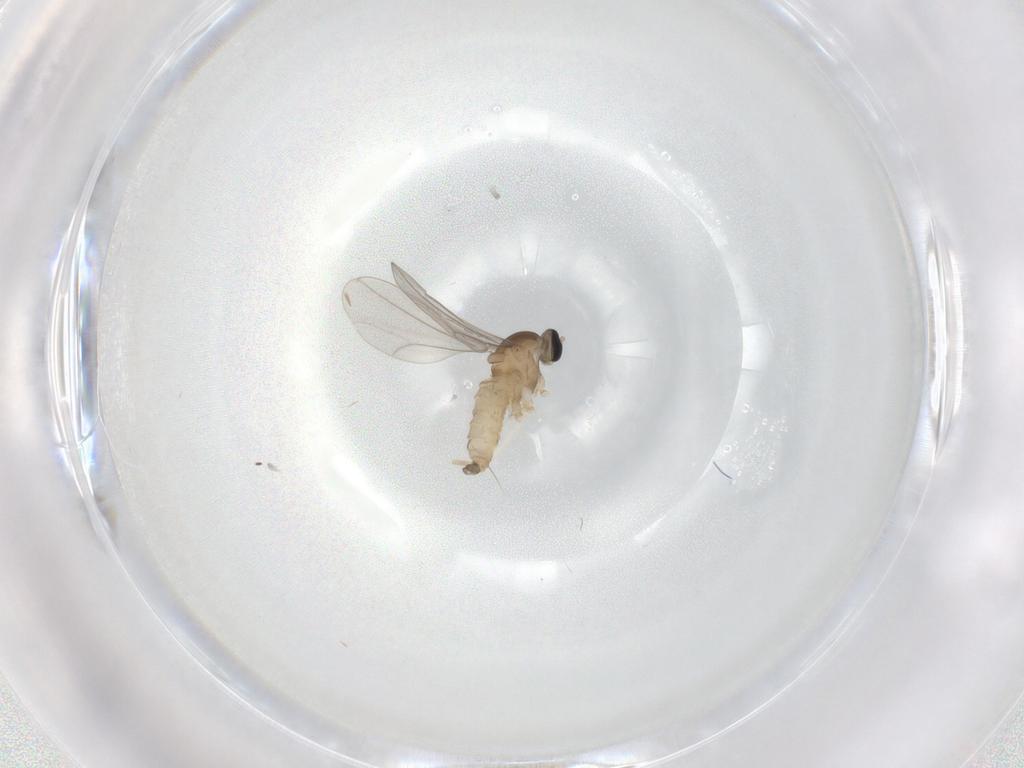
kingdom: Animalia
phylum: Arthropoda
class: Insecta
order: Diptera
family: Cecidomyiidae
